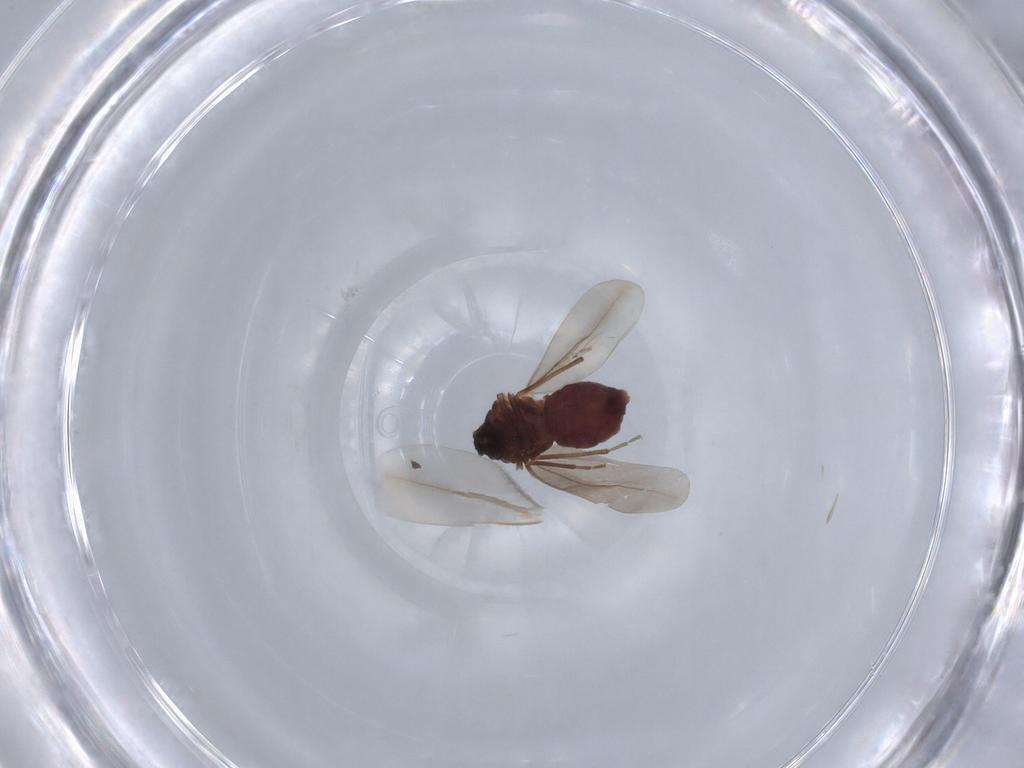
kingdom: Animalia
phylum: Arthropoda
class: Insecta
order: Hemiptera
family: Aleyrodidae
